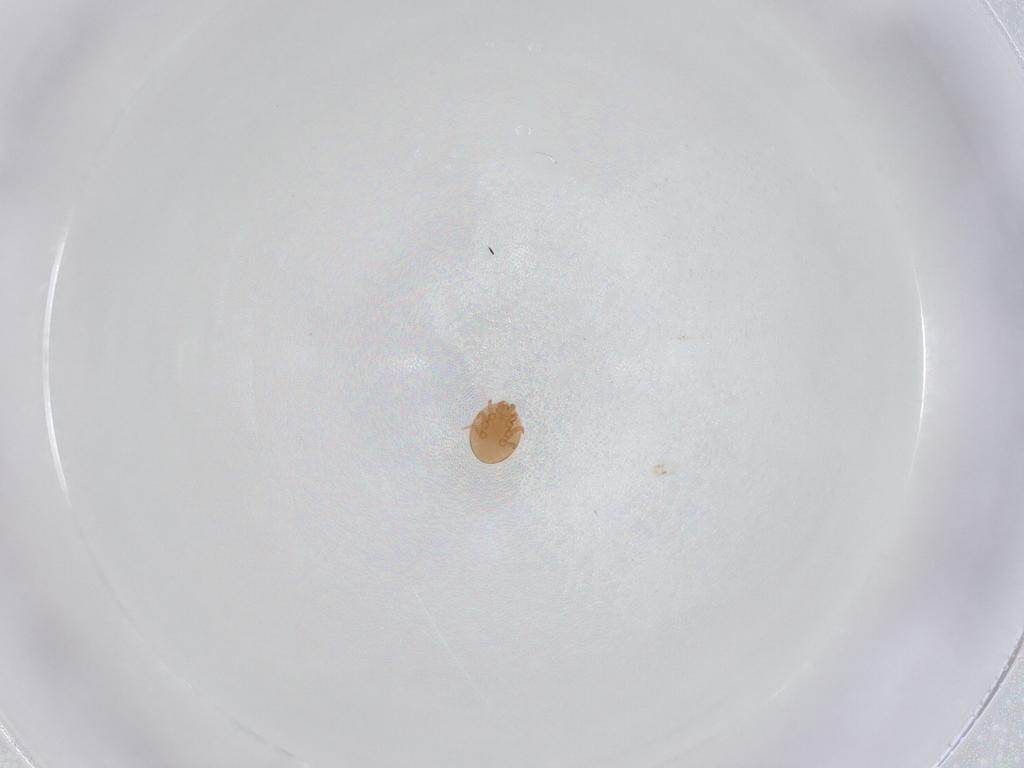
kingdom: Animalia
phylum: Arthropoda
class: Arachnida
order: Mesostigmata
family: Trematuridae
